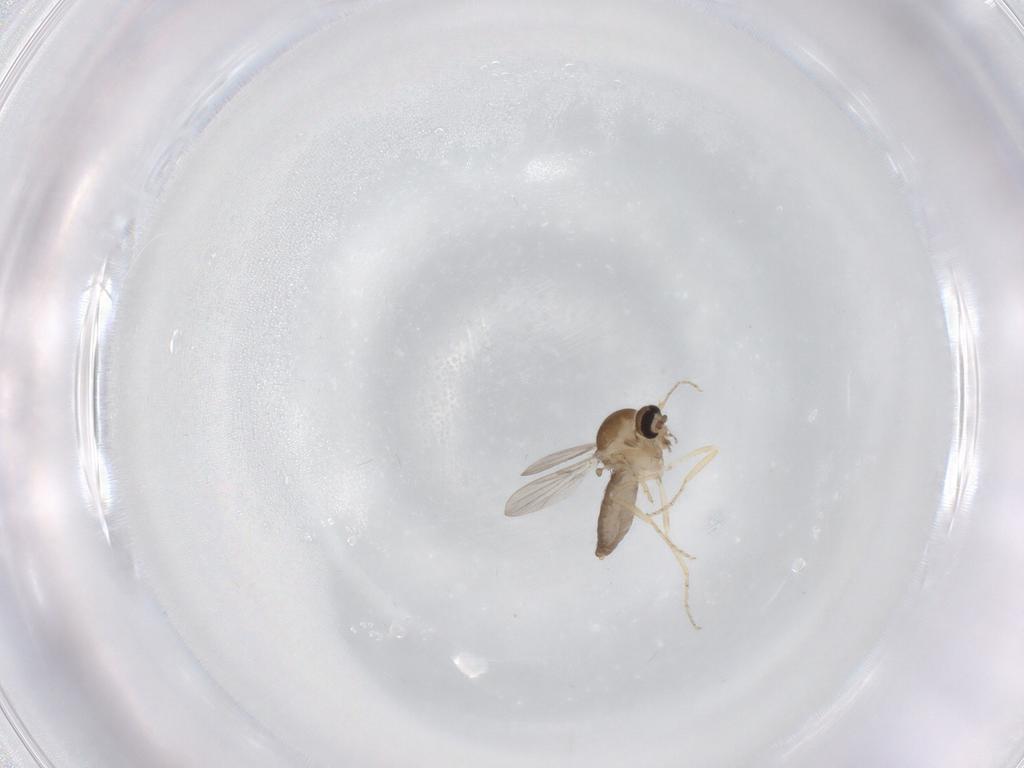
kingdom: Animalia
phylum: Arthropoda
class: Insecta
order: Diptera
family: Ceratopogonidae
